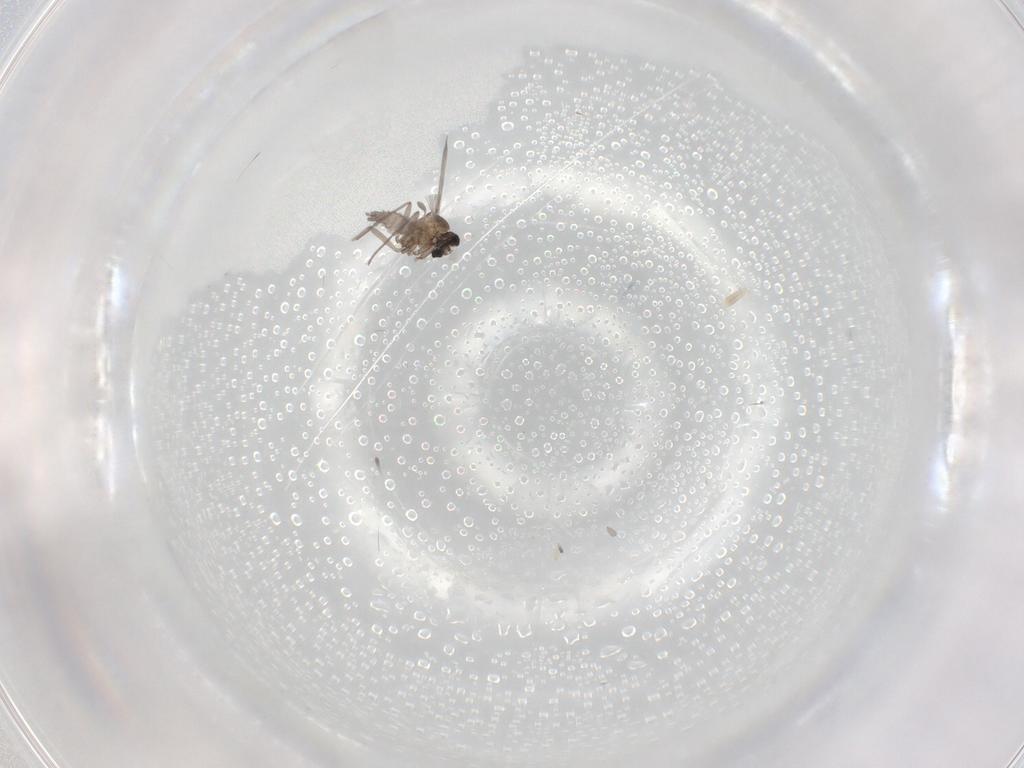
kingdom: Animalia
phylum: Arthropoda
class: Insecta
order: Diptera
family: Sciaridae
